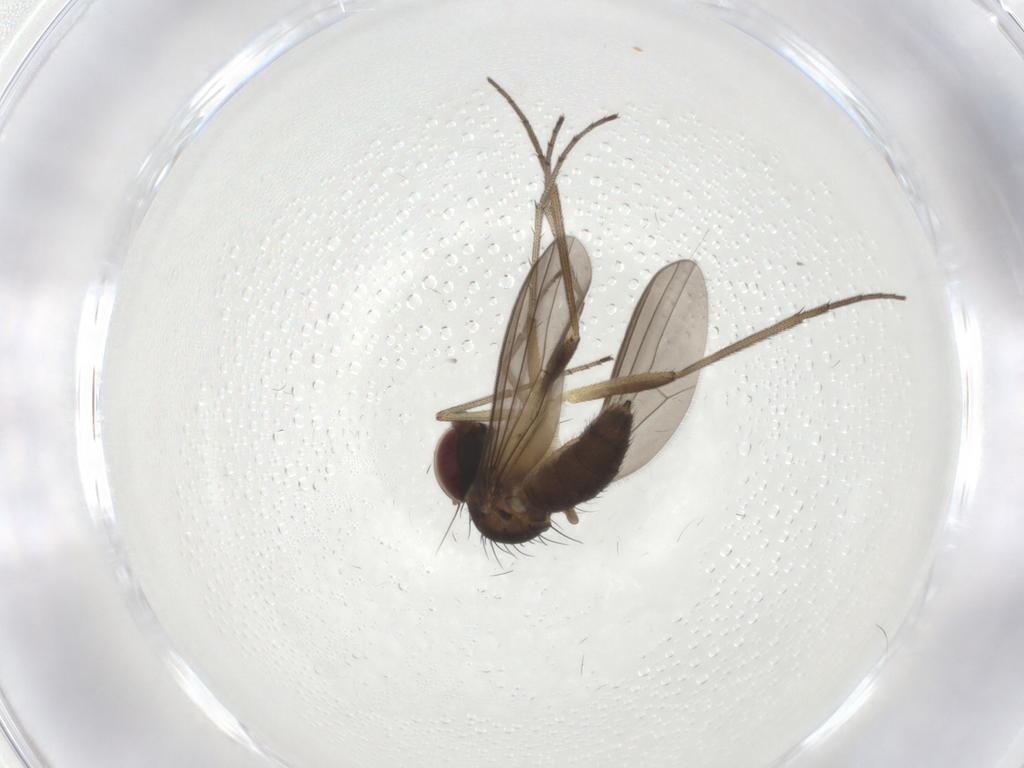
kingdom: Animalia
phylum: Arthropoda
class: Insecta
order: Diptera
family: Dolichopodidae
